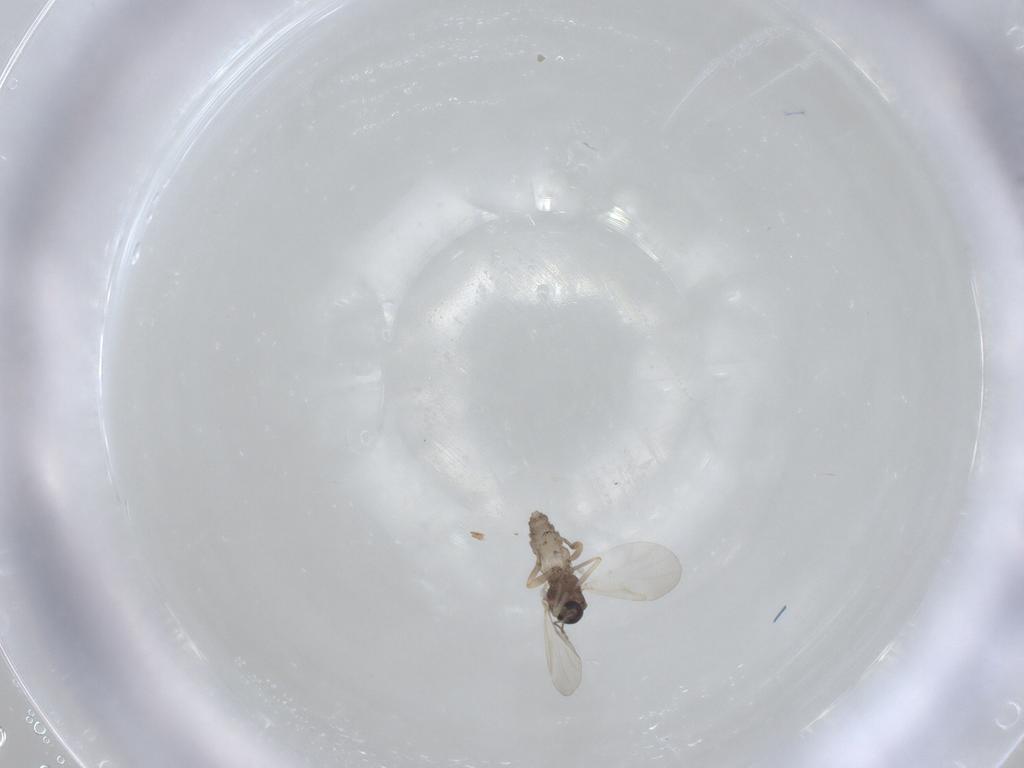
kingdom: Animalia
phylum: Arthropoda
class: Insecta
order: Diptera
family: Ceratopogonidae
